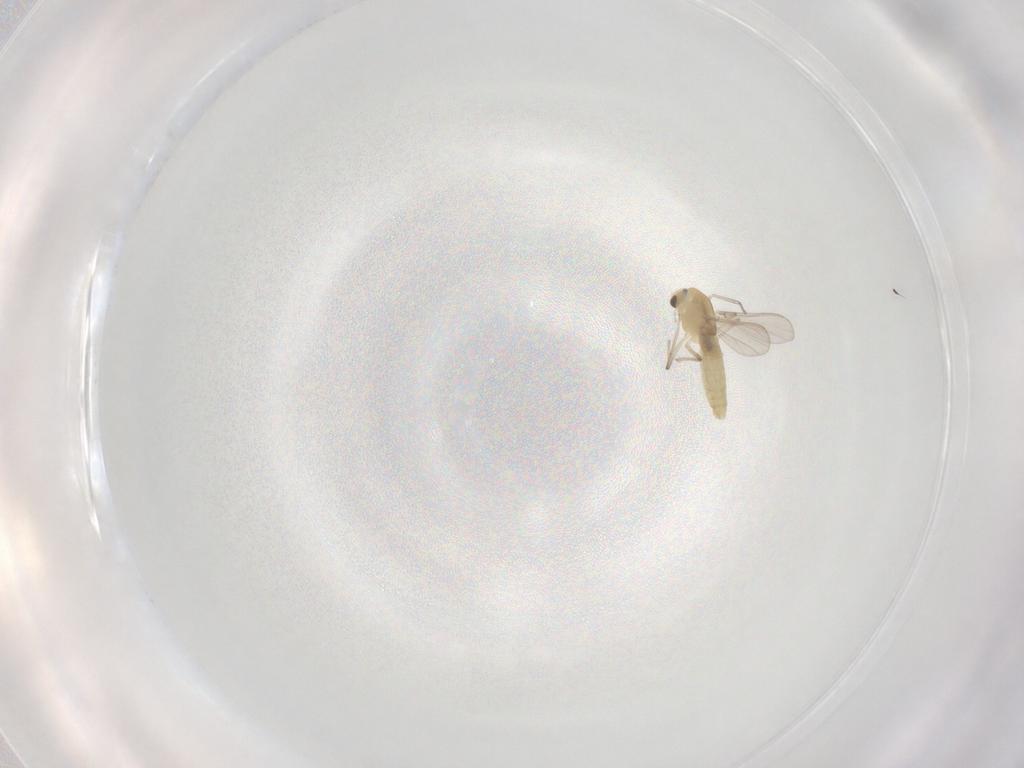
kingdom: Animalia
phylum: Arthropoda
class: Insecta
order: Diptera
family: Chironomidae
